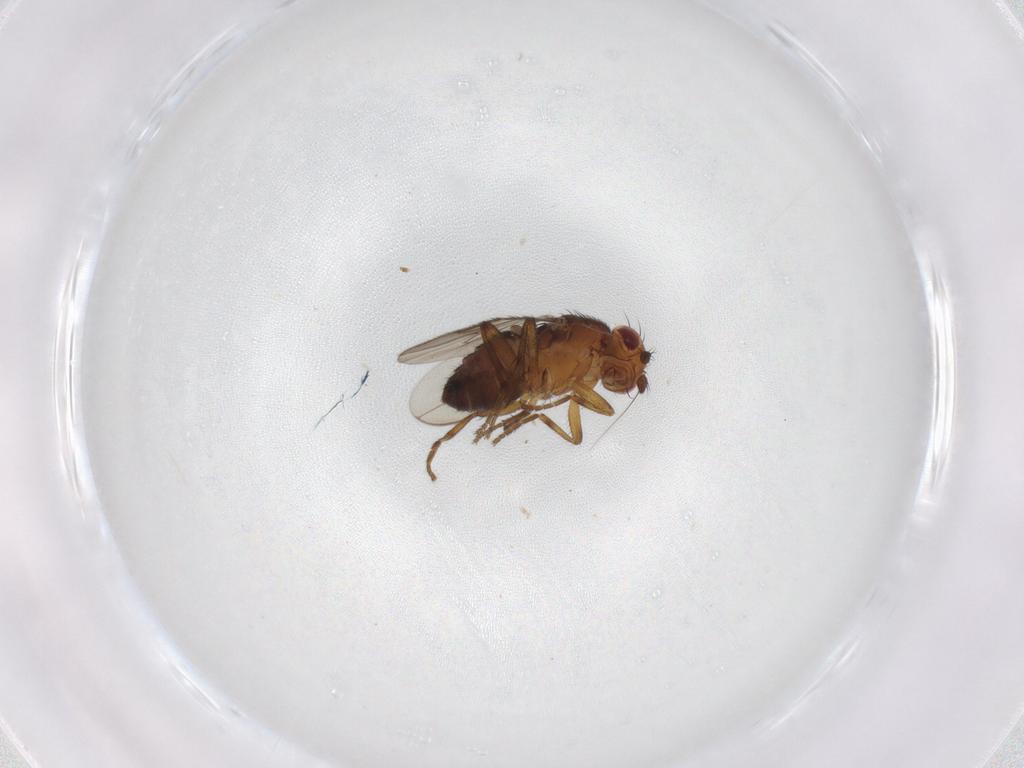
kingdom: Animalia
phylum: Arthropoda
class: Insecta
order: Diptera
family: Sphaeroceridae
